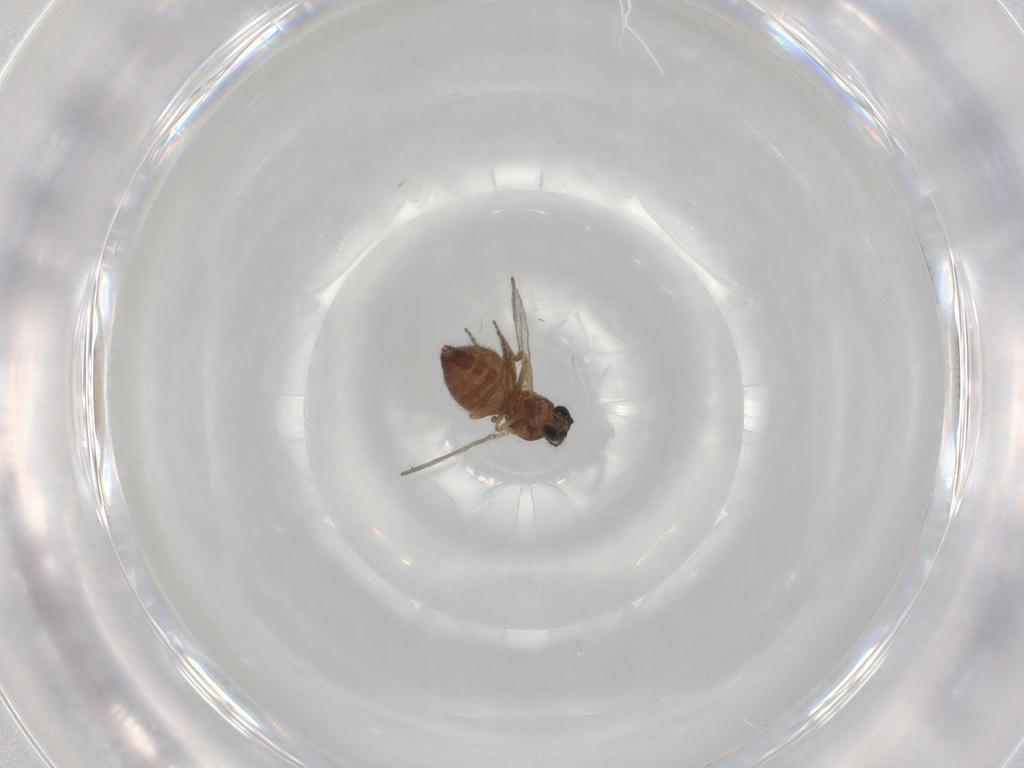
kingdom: Animalia
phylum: Arthropoda
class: Insecta
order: Diptera
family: Ceratopogonidae
